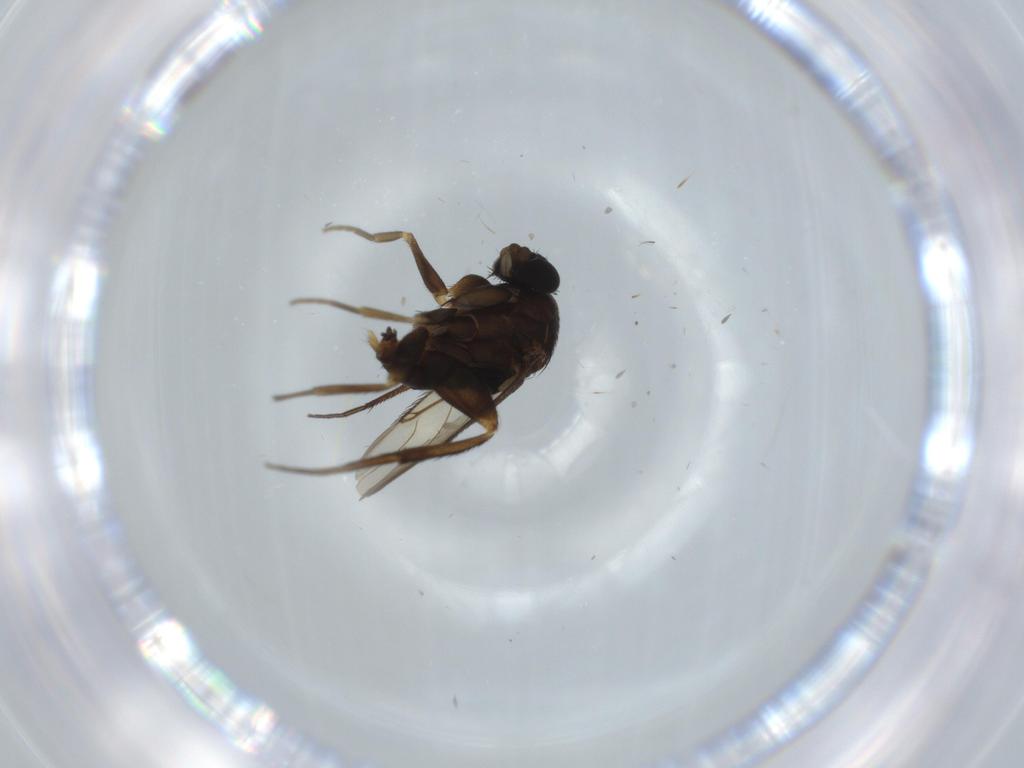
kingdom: Animalia
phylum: Arthropoda
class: Insecta
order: Diptera
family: Phoridae
